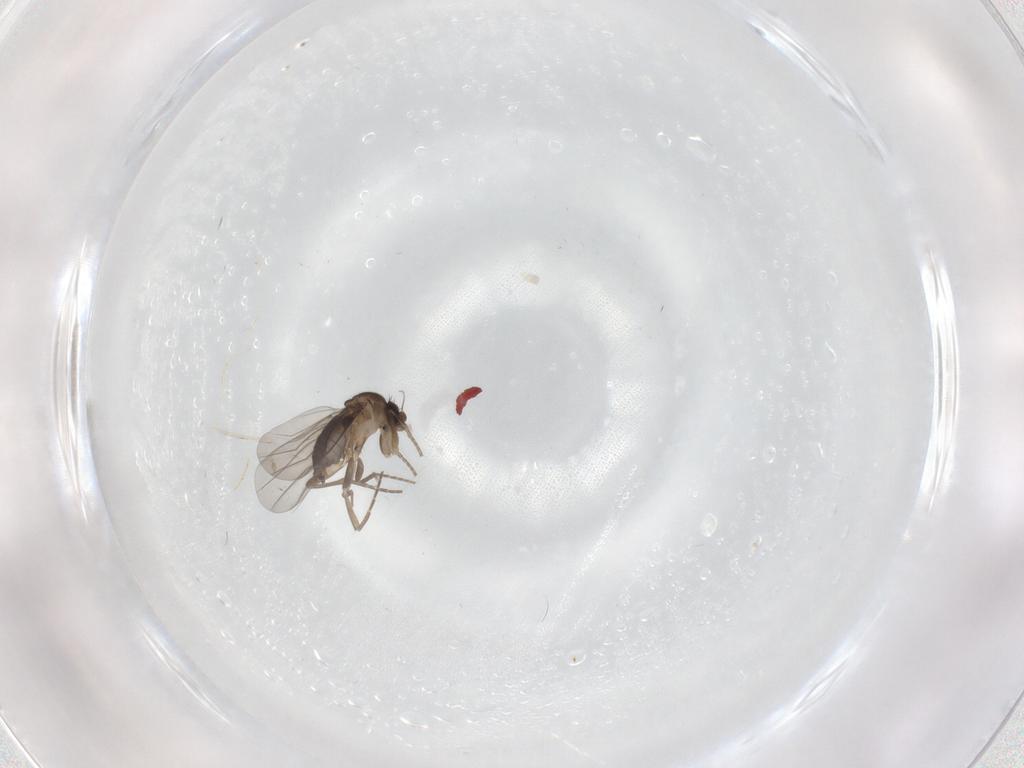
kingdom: Animalia
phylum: Arthropoda
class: Insecta
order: Diptera
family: Cecidomyiidae
